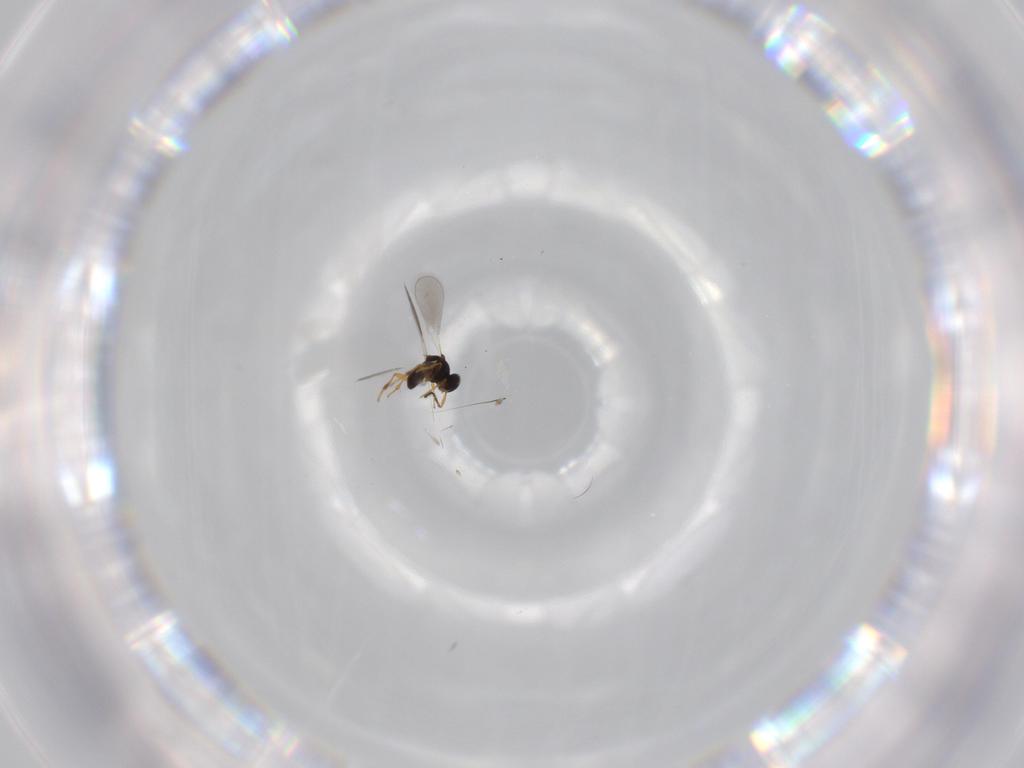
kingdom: Animalia
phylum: Arthropoda
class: Insecta
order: Hymenoptera
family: Platygastridae
